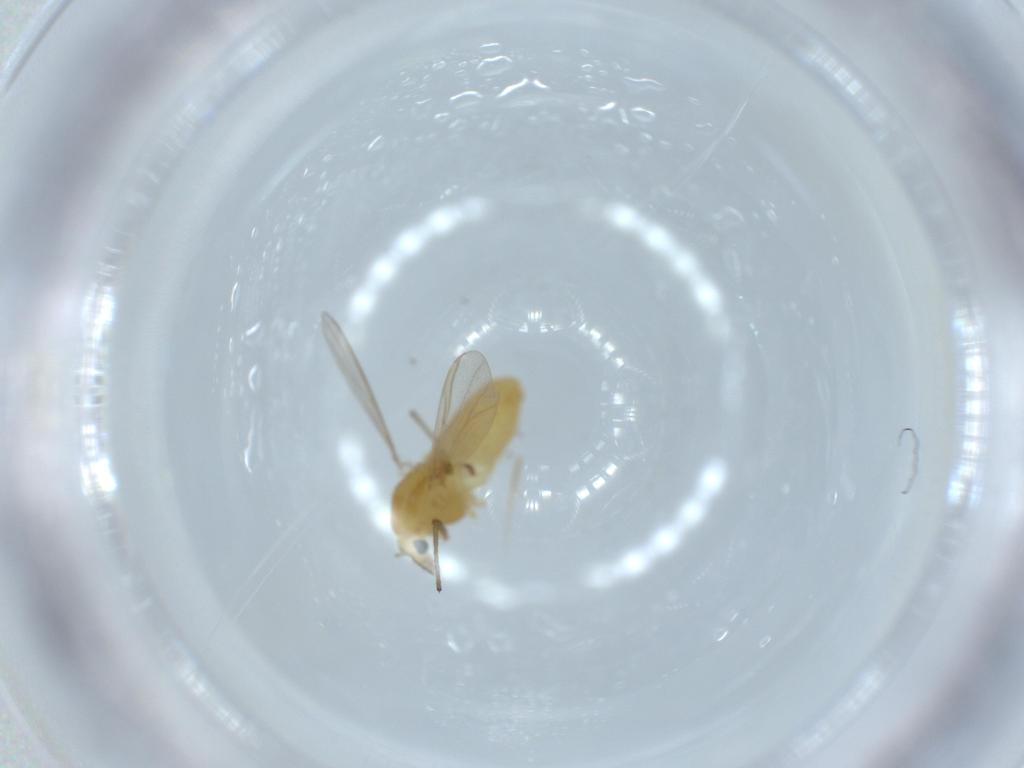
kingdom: Animalia
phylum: Arthropoda
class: Insecta
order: Diptera
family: Chironomidae
